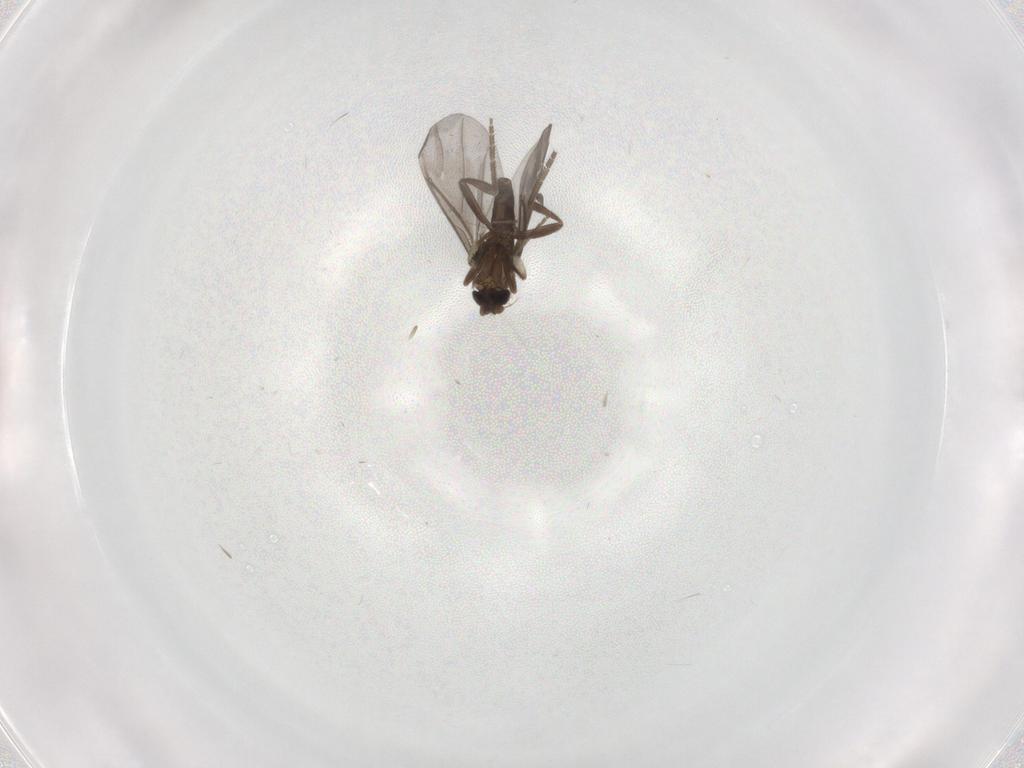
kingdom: Animalia
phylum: Arthropoda
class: Insecta
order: Diptera
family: Phoridae
